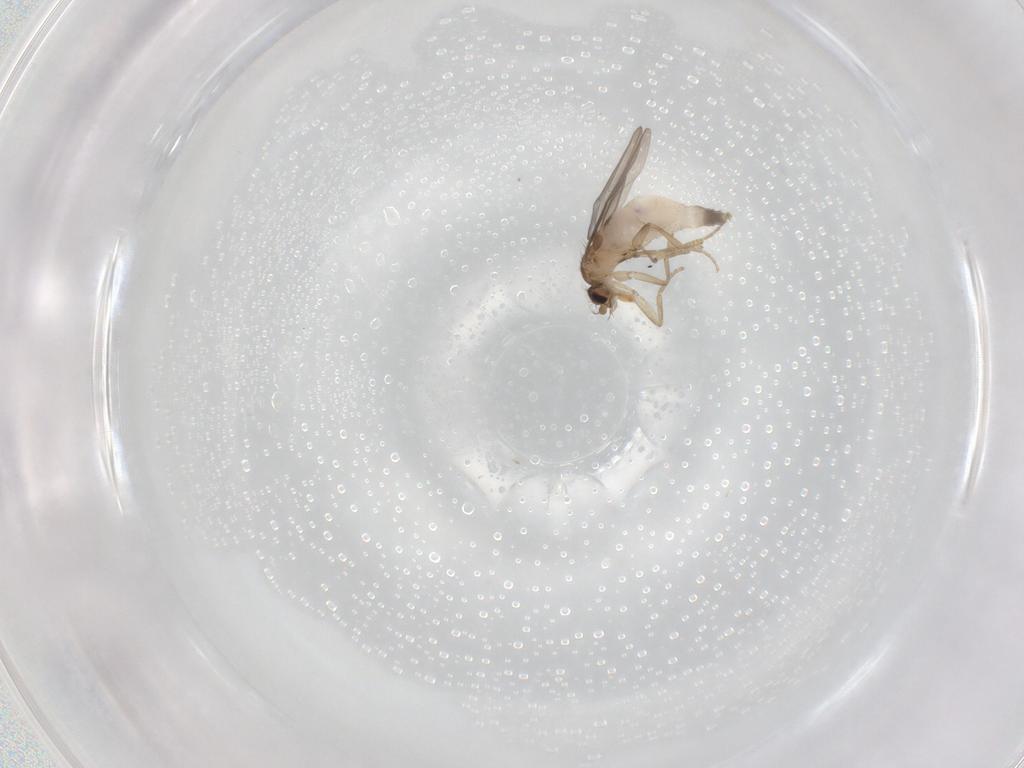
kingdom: Animalia
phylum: Arthropoda
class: Insecta
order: Diptera
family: Phoridae
